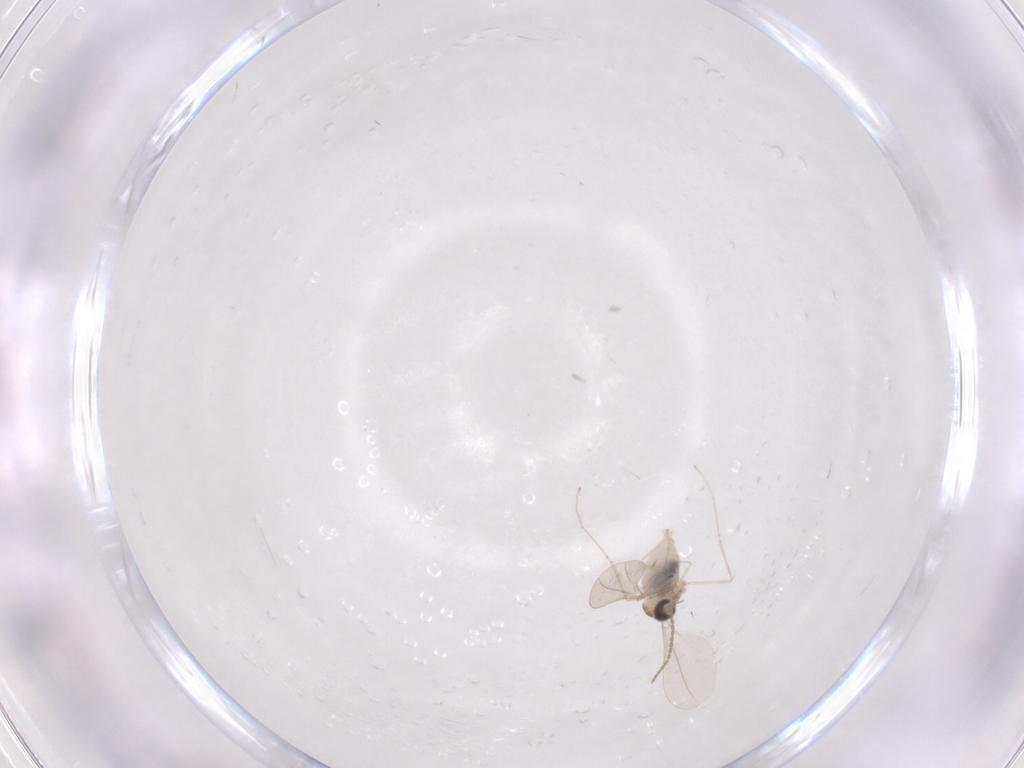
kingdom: Animalia
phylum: Arthropoda
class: Insecta
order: Diptera
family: Cecidomyiidae
